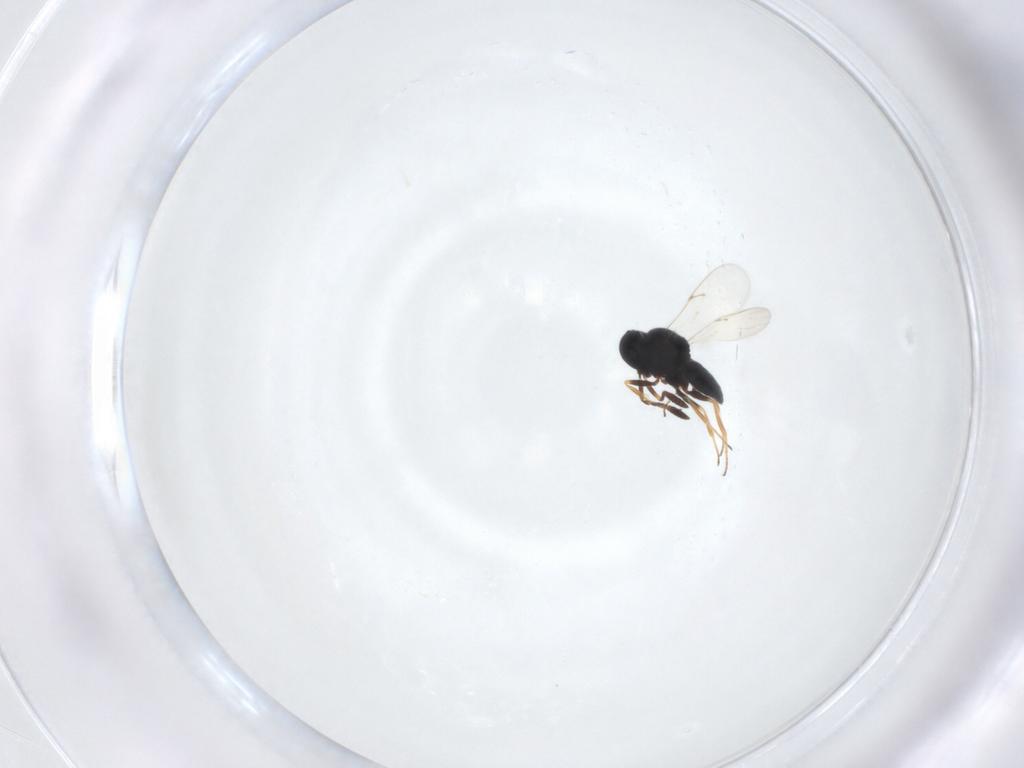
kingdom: Animalia
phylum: Arthropoda
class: Insecta
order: Hymenoptera
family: Scelionidae
